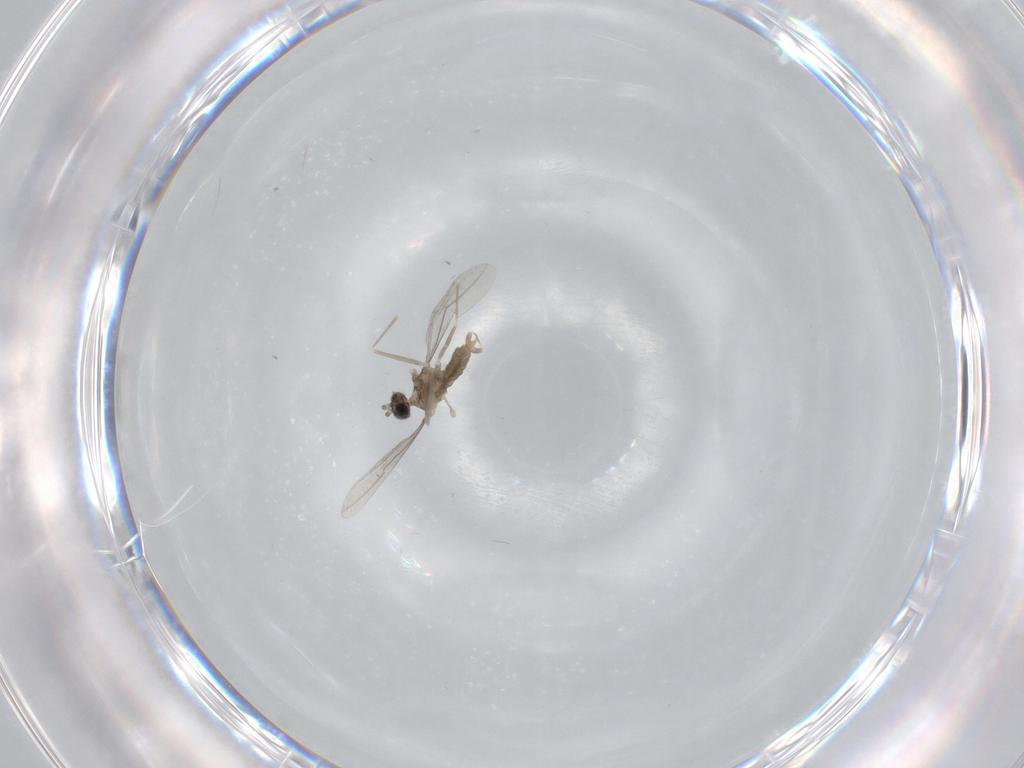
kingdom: Animalia
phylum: Arthropoda
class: Insecta
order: Diptera
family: Cecidomyiidae
